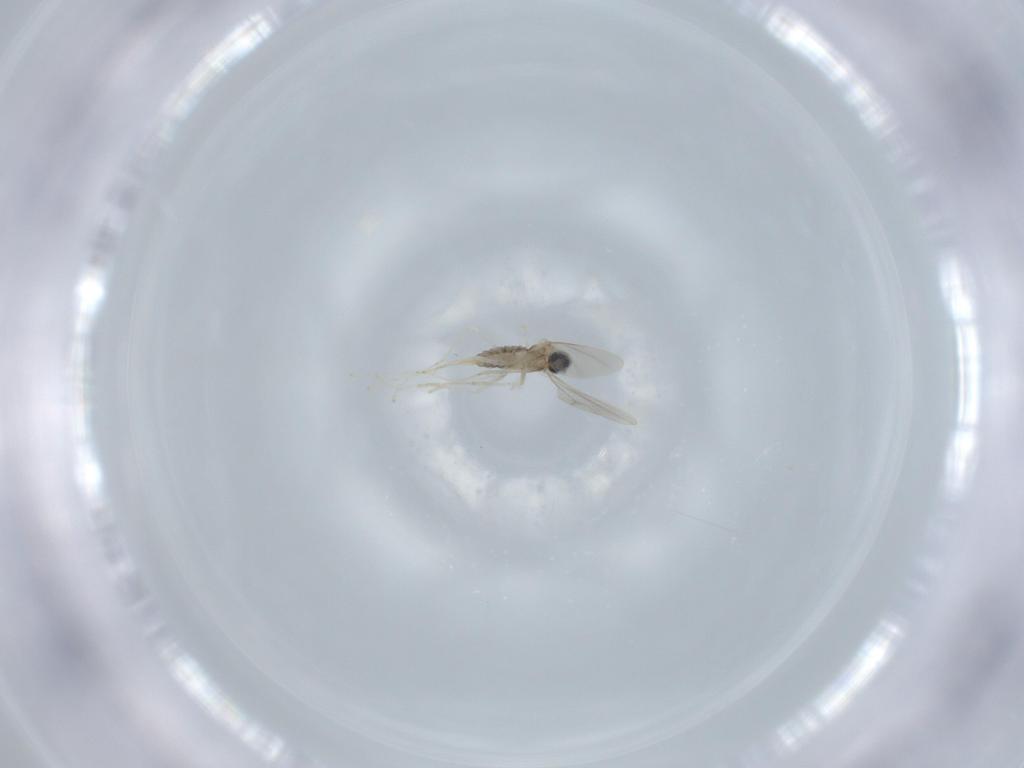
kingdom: Animalia
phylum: Arthropoda
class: Insecta
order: Diptera
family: Cecidomyiidae
